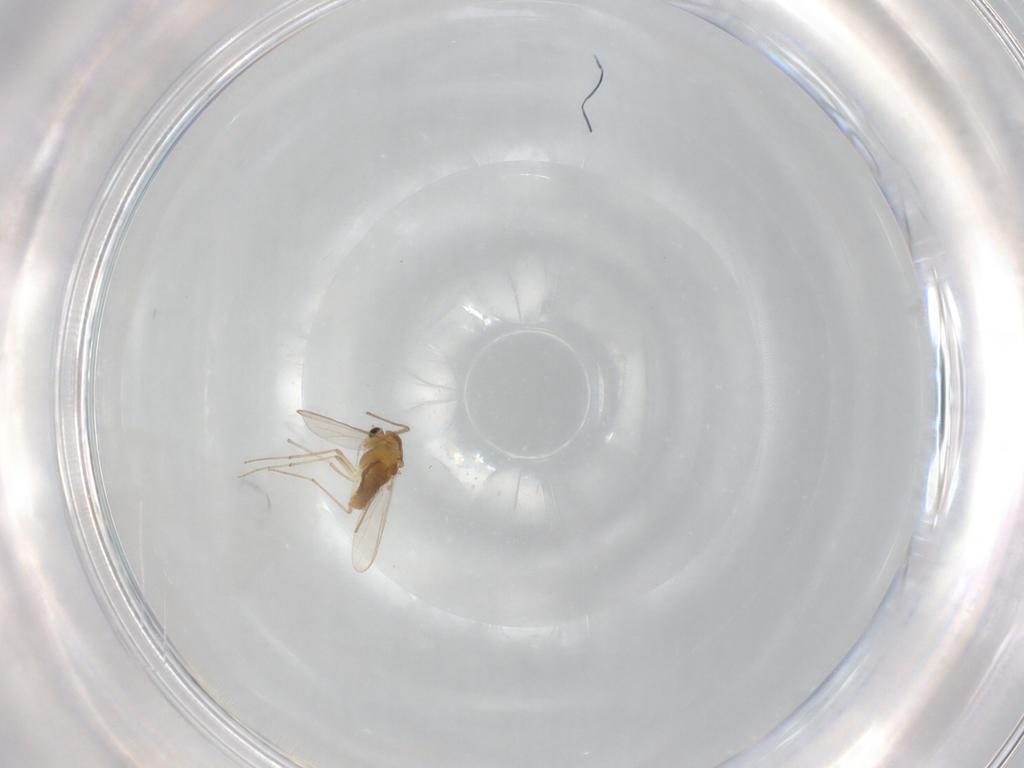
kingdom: Animalia
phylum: Arthropoda
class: Insecta
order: Diptera
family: Chironomidae
